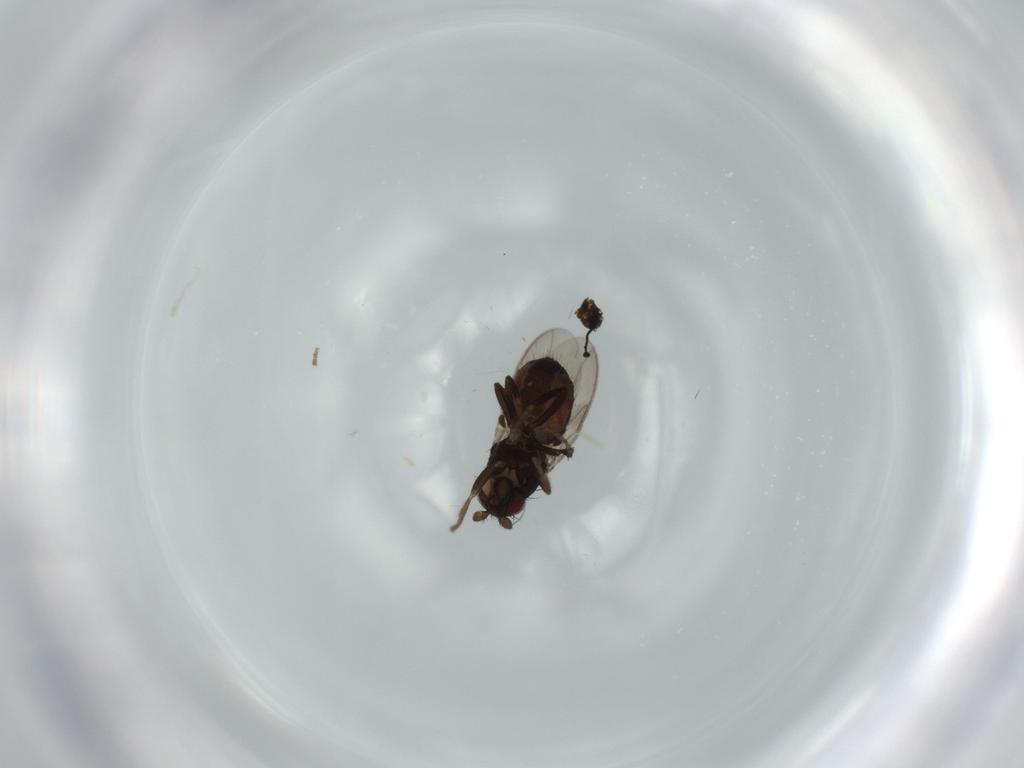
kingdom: Animalia
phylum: Arthropoda
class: Insecta
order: Diptera
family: Sphaeroceridae
